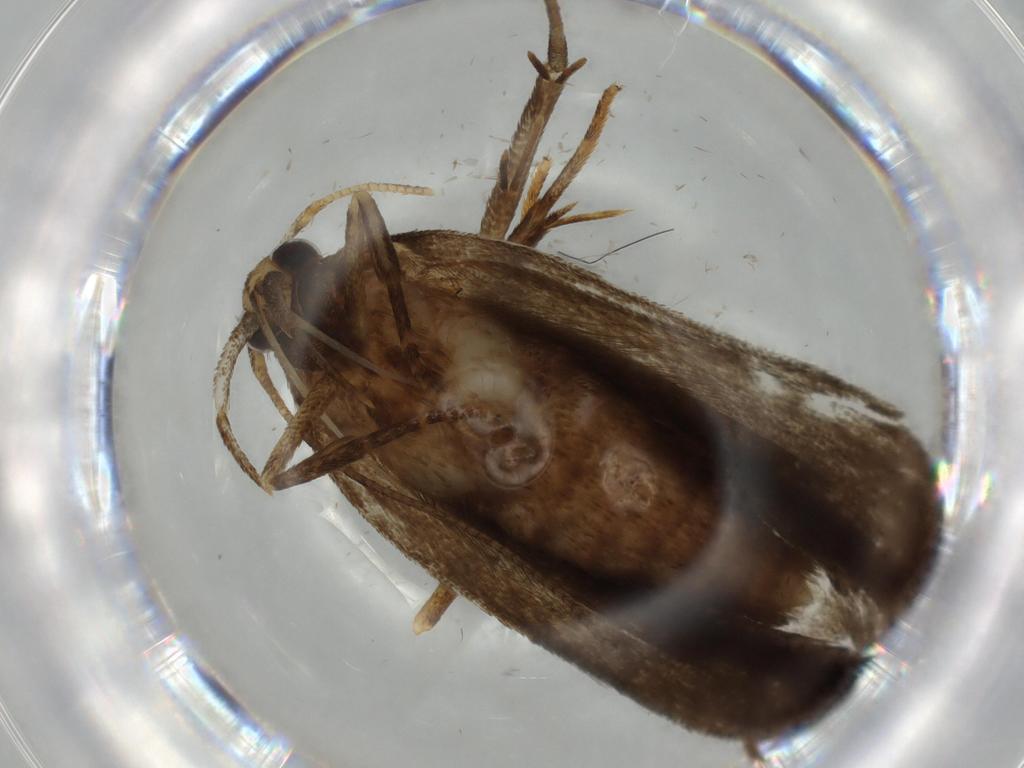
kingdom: Animalia
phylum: Arthropoda
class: Insecta
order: Lepidoptera
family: Autostichidae
